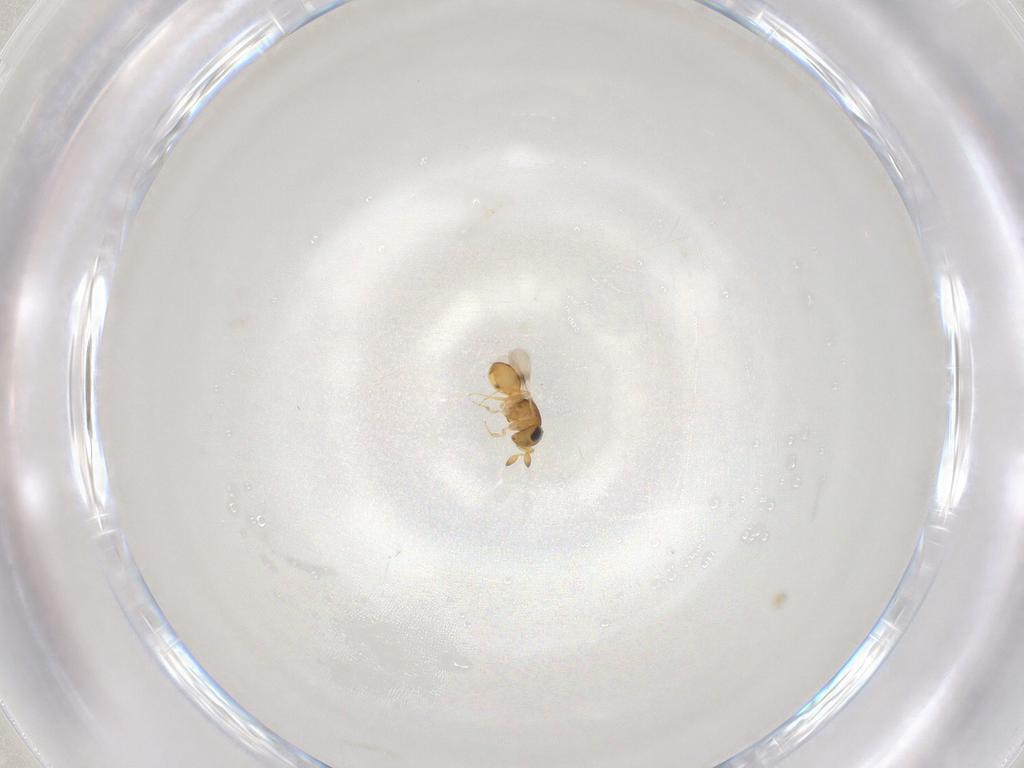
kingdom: Animalia
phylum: Arthropoda
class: Insecta
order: Hymenoptera
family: Scelionidae
